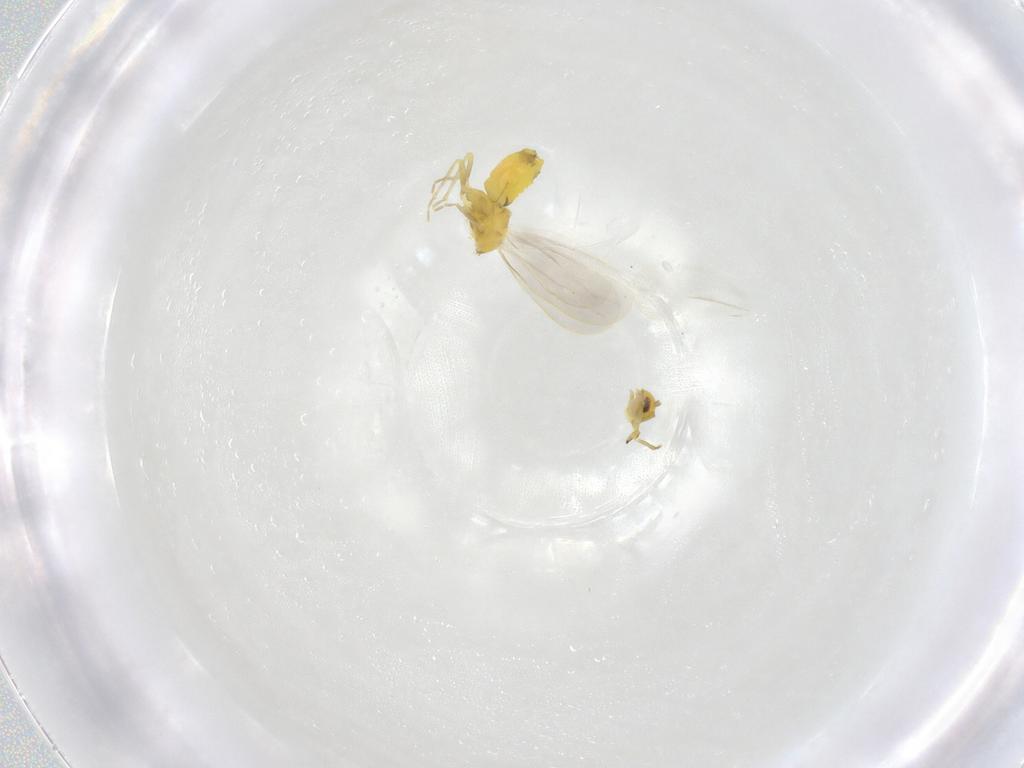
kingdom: Animalia
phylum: Arthropoda
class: Insecta
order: Hemiptera
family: Aleyrodidae
